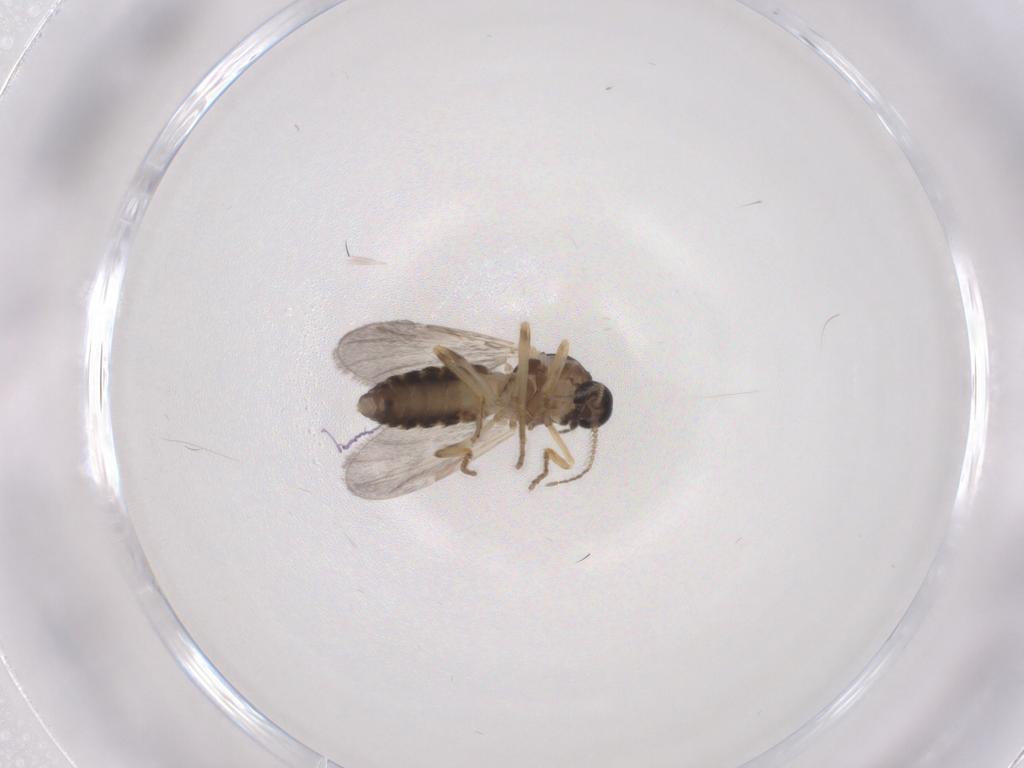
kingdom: Animalia
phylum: Arthropoda
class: Insecta
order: Diptera
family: Ceratopogonidae
